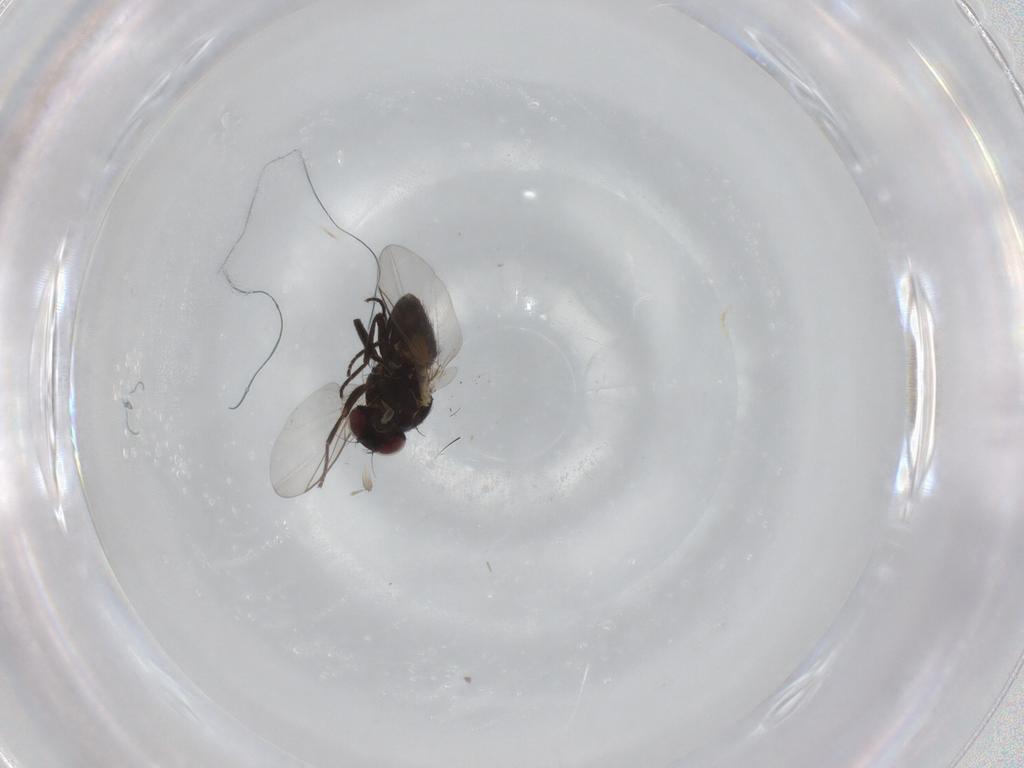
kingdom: Animalia
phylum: Arthropoda
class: Insecta
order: Diptera
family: Agromyzidae
